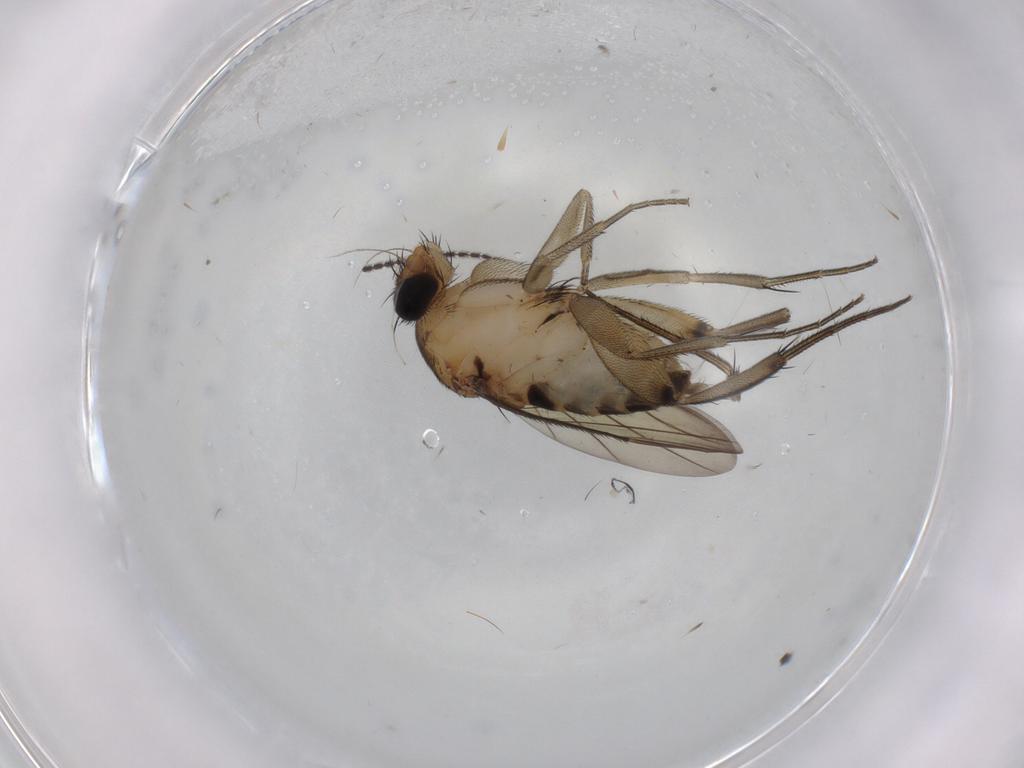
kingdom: Animalia
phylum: Arthropoda
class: Insecta
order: Diptera
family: Phoridae
